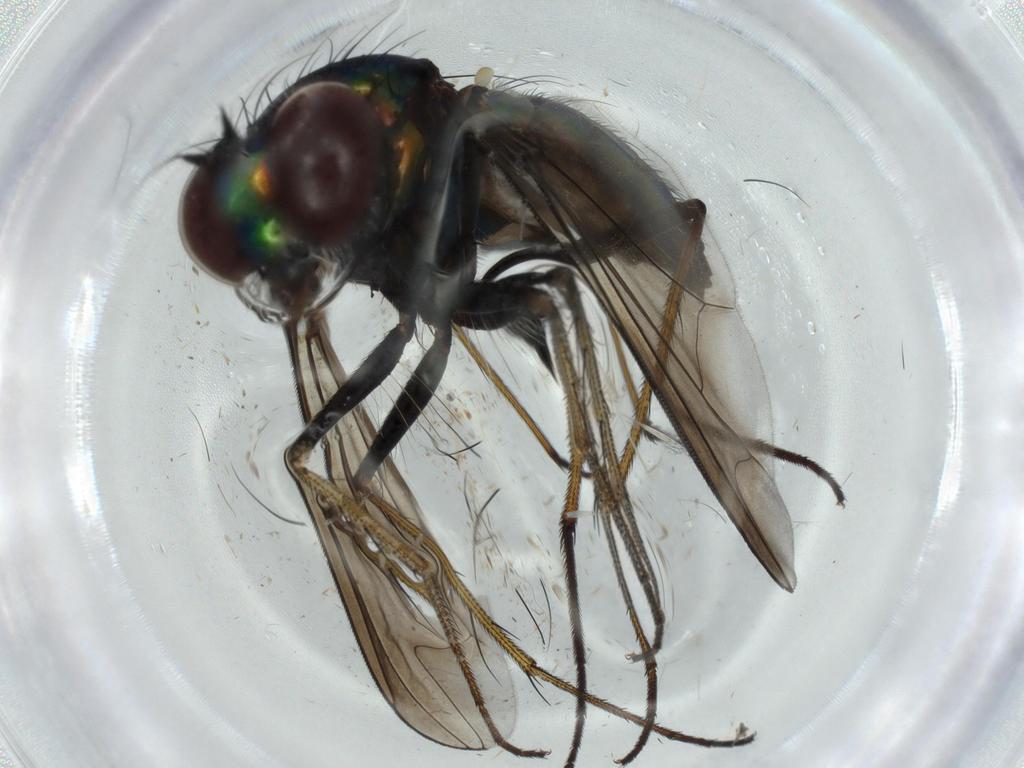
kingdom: Animalia
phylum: Arthropoda
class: Insecta
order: Diptera
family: Dolichopodidae
